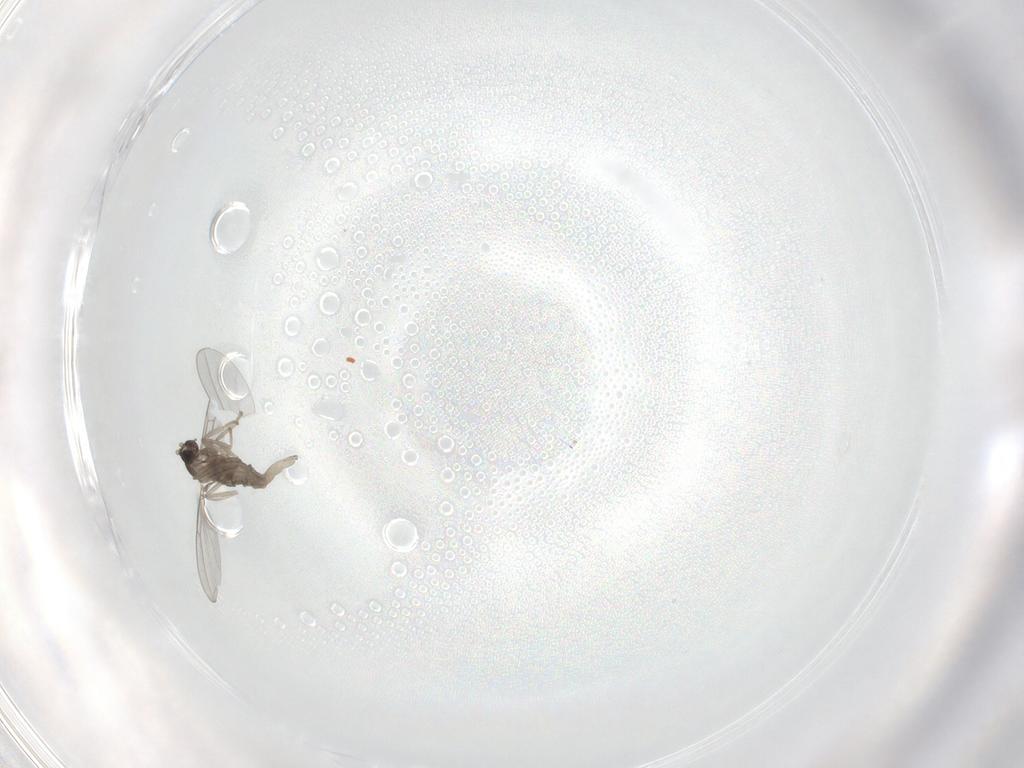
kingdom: Animalia
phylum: Arthropoda
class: Insecta
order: Diptera
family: Cecidomyiidae
